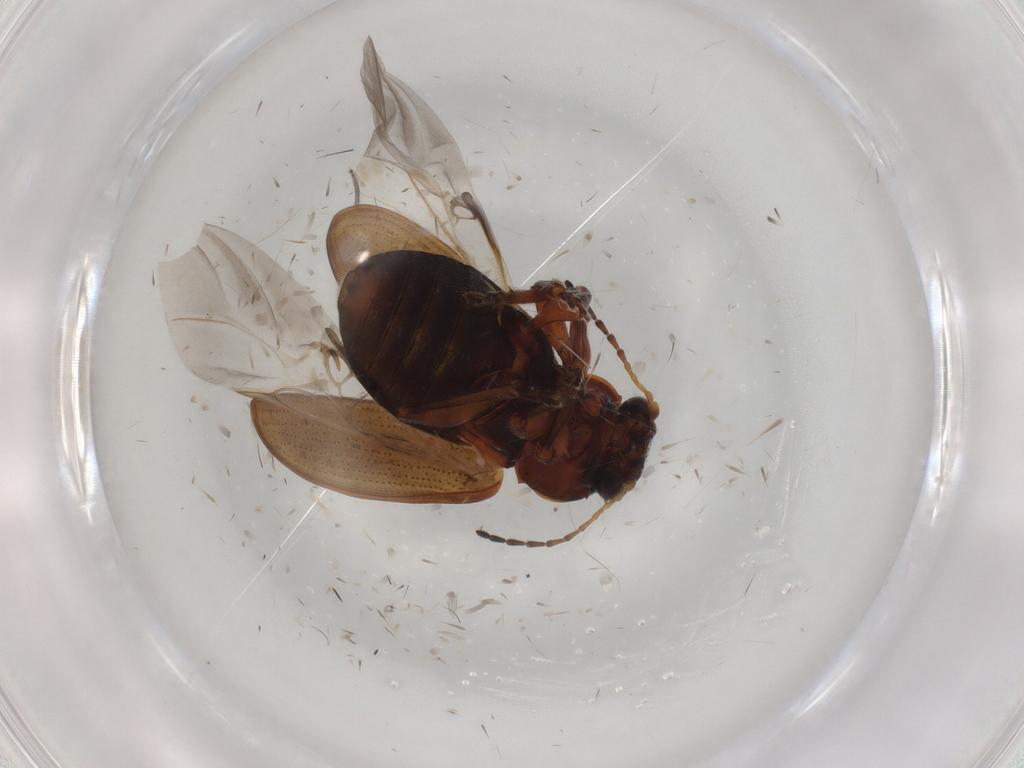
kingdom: Animalia
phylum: Arthropoda
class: Insecta
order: Coleoptera
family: Chrysomelidae
